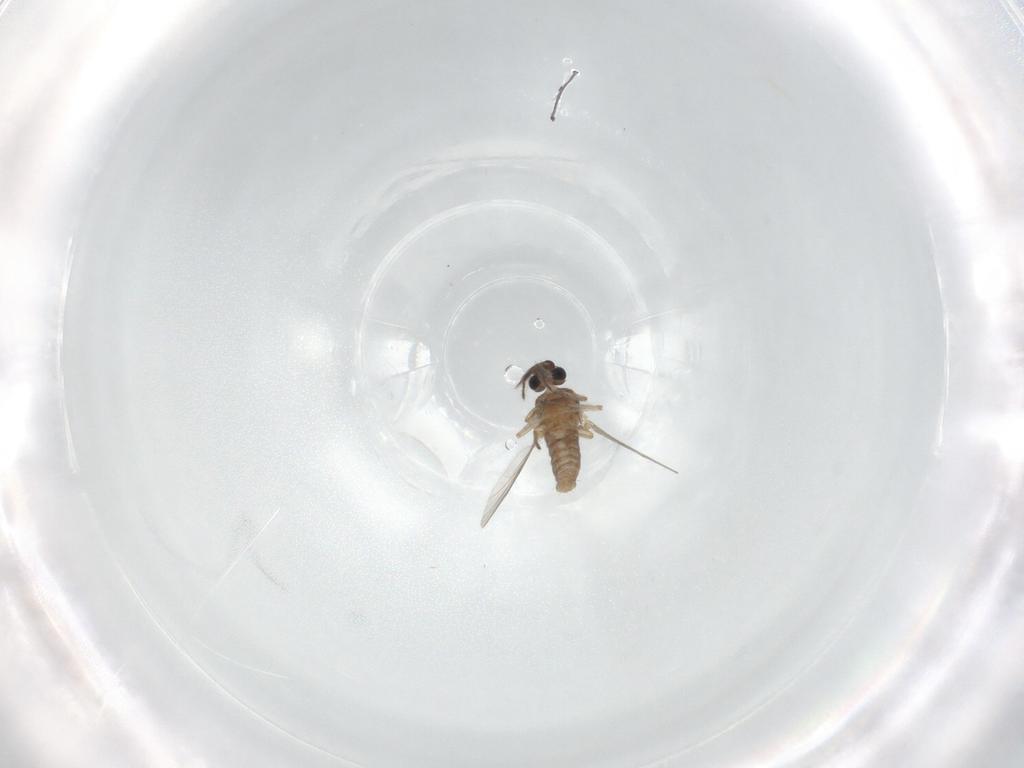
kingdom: Animalia
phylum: Arthropoda
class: Insecta
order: Diptera
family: Ceratopogonidae
